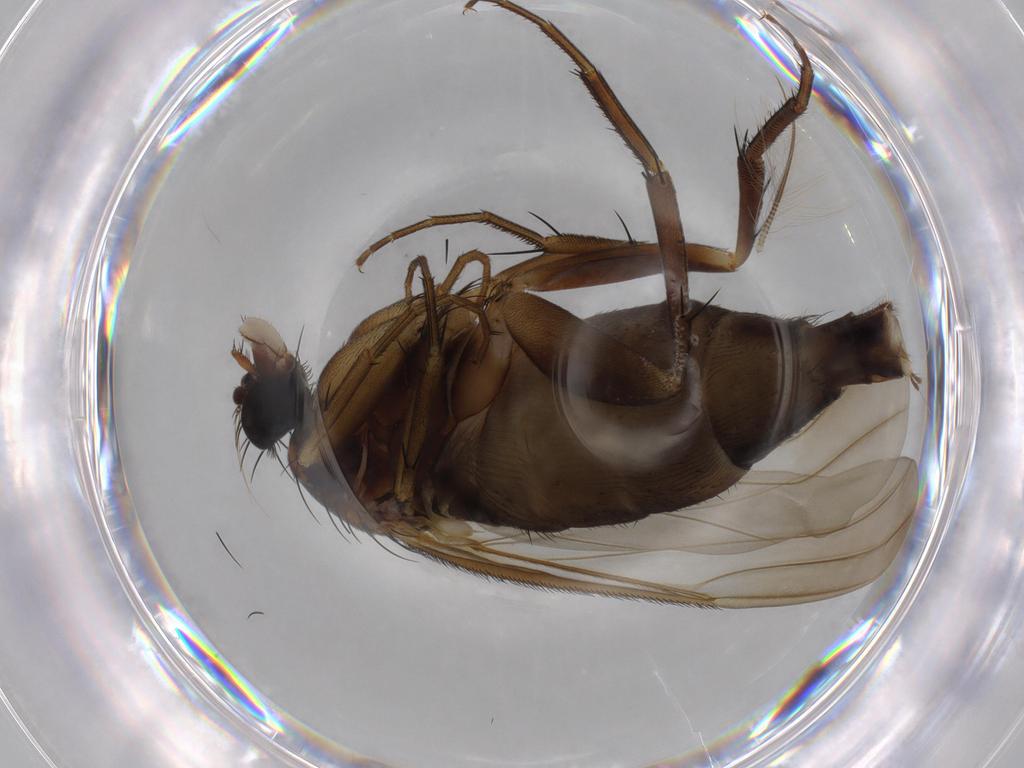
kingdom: Animalia
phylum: Arthropoda
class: Insecta
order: Diptera
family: Phoridae
